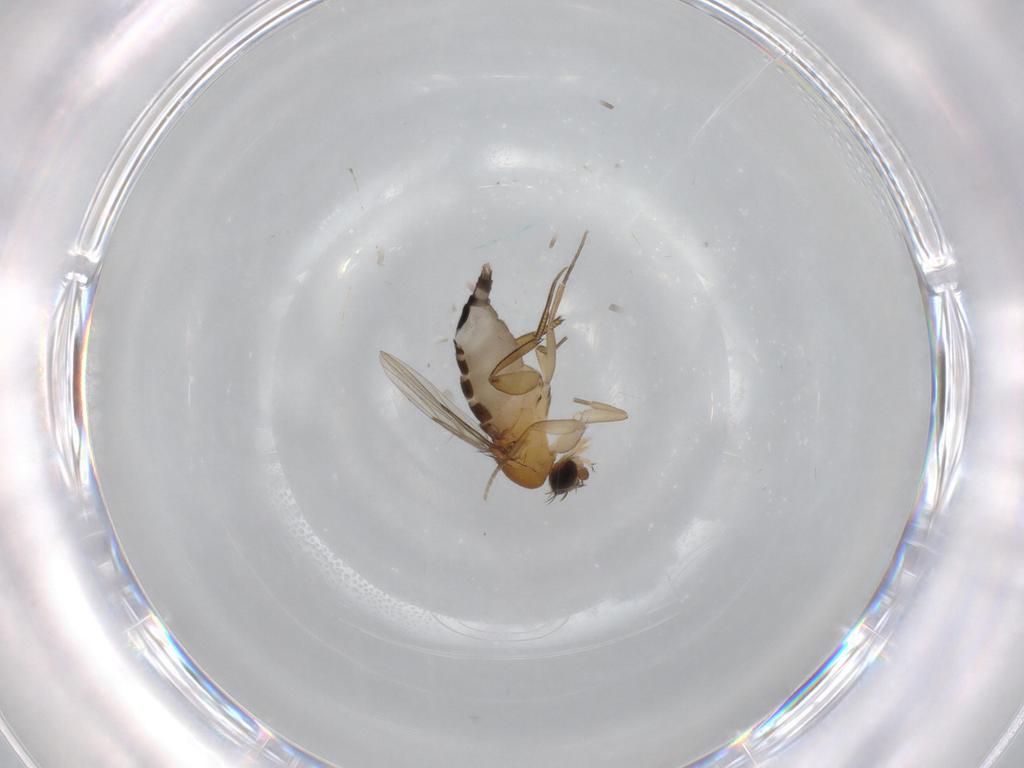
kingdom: Animalia
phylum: Arthropoda
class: Insecta
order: Diptera
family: Phoridae
